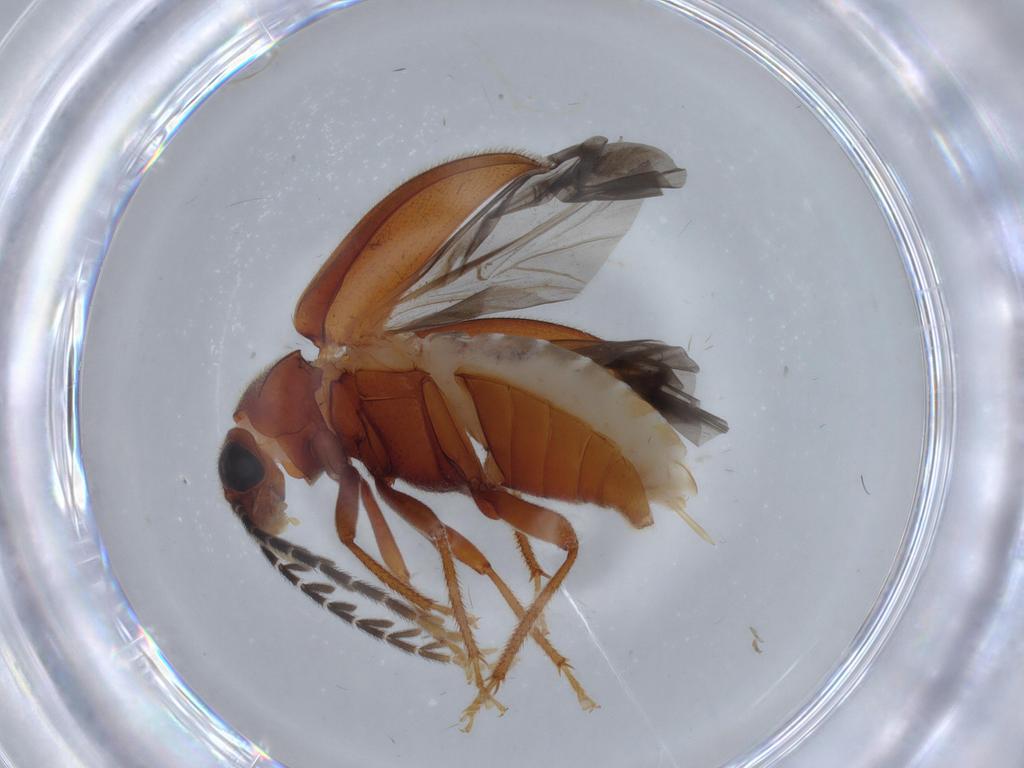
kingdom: Animalia
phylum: Arthropoda
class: Insecta
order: Coleoptera
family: Ptilodactylidae
